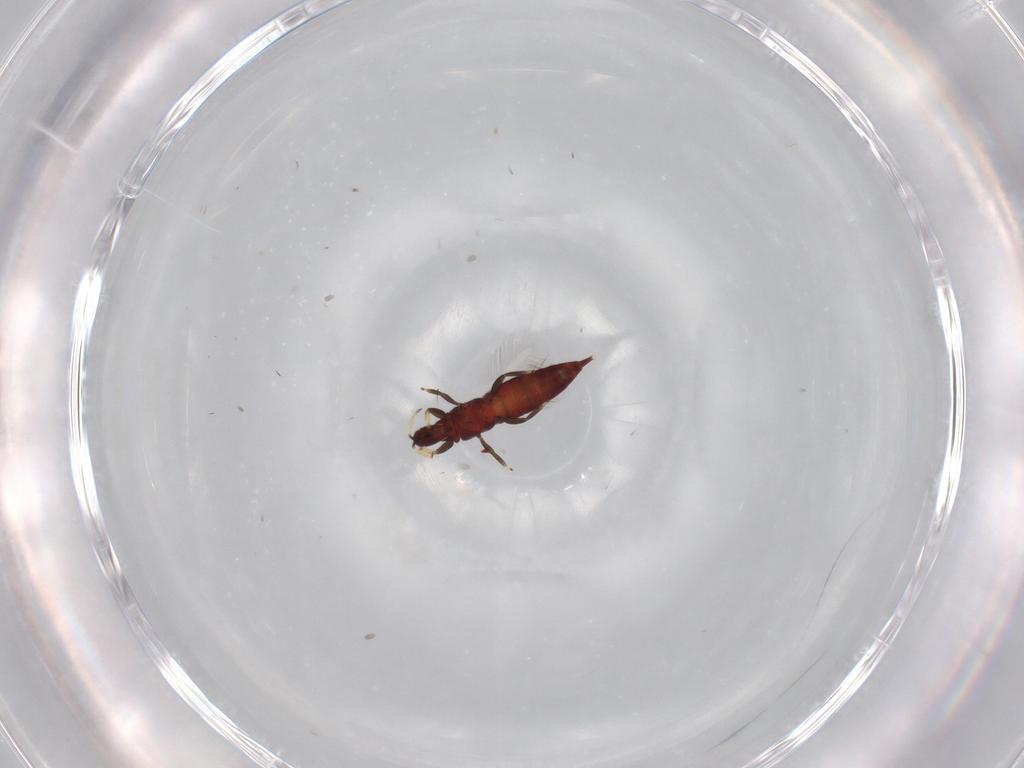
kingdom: Animalia
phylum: Arthropoda
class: Insecta
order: Thysanoptera
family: Phlaeothripidae
